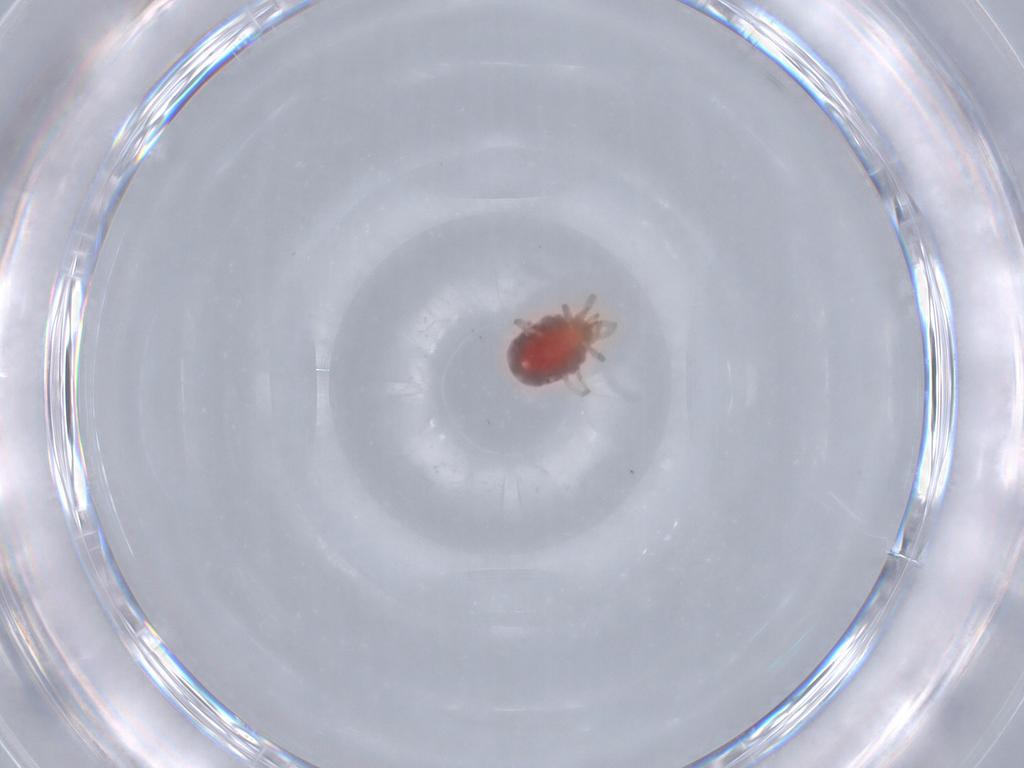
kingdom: Animalia
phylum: Arthropoda
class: Arachnida
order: Trombidiformes
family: Erythraeidae
